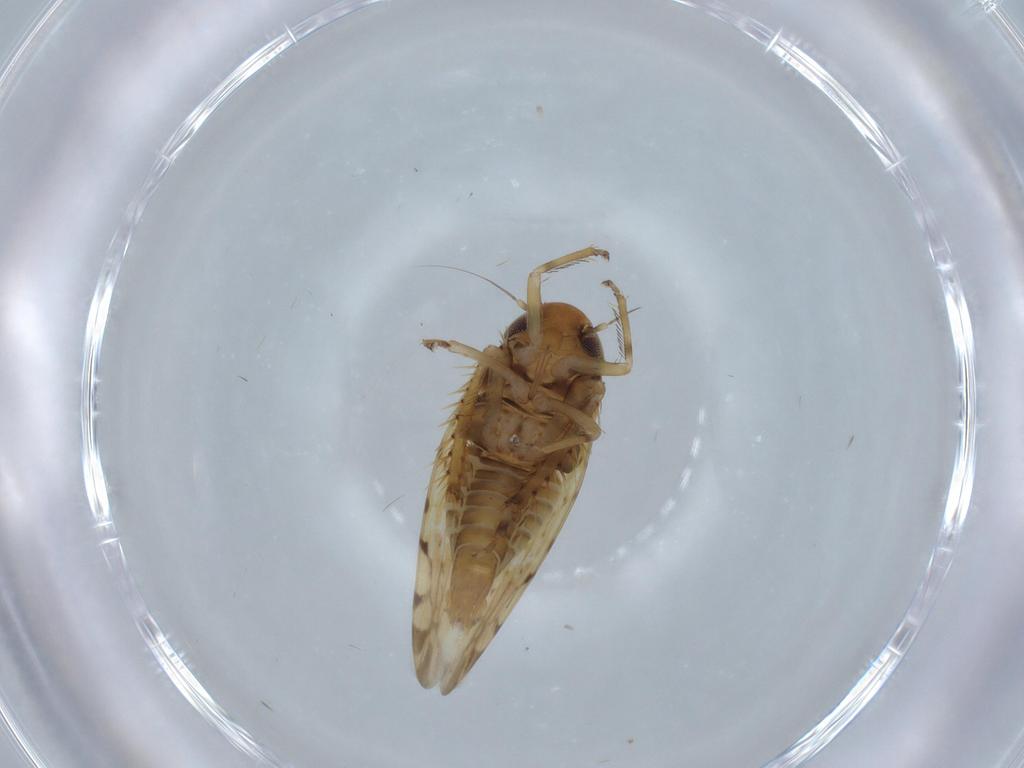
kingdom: Animalia
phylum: Arthropoda
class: Insecta
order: Hemiptera
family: Cicadellidae
